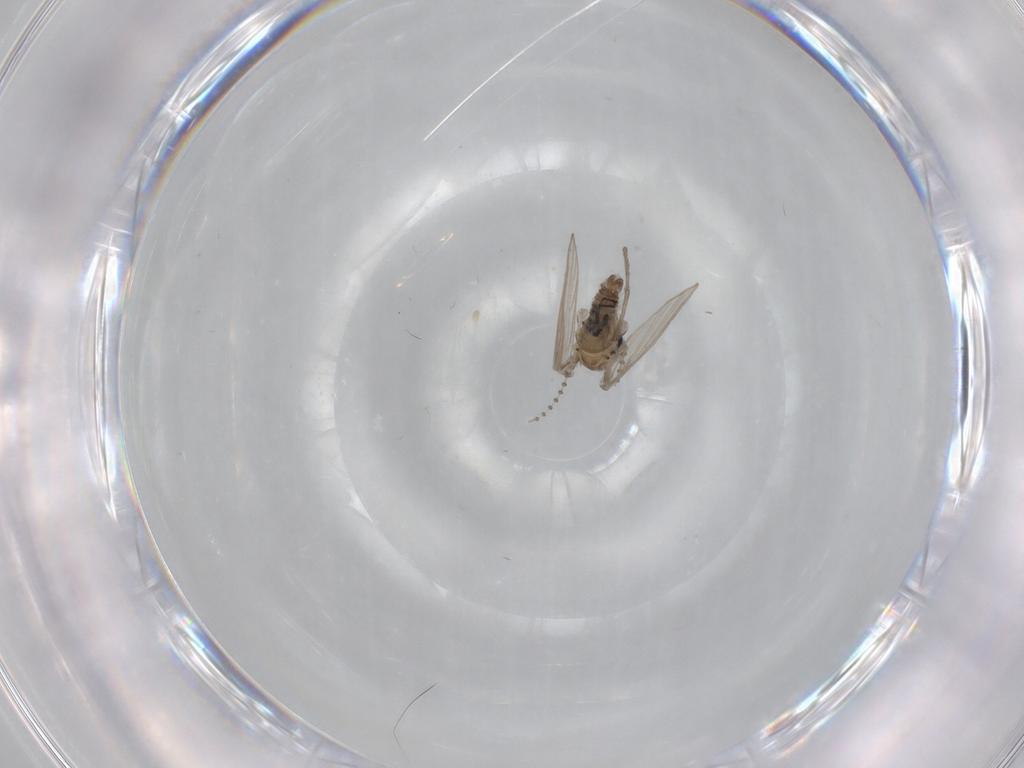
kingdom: Animalia
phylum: Arthropoda
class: Insecta
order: Diptera
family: Psychodidae
